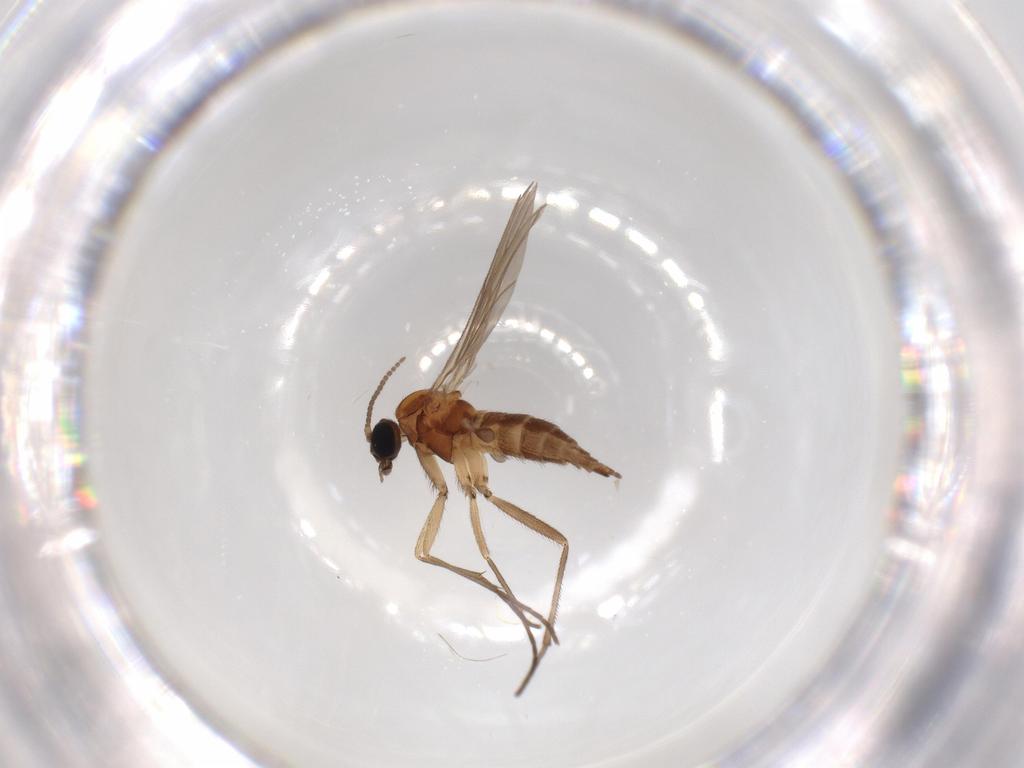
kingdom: Animalia
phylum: Arthropoda
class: Insecta
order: Diptera
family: Sciaridae
